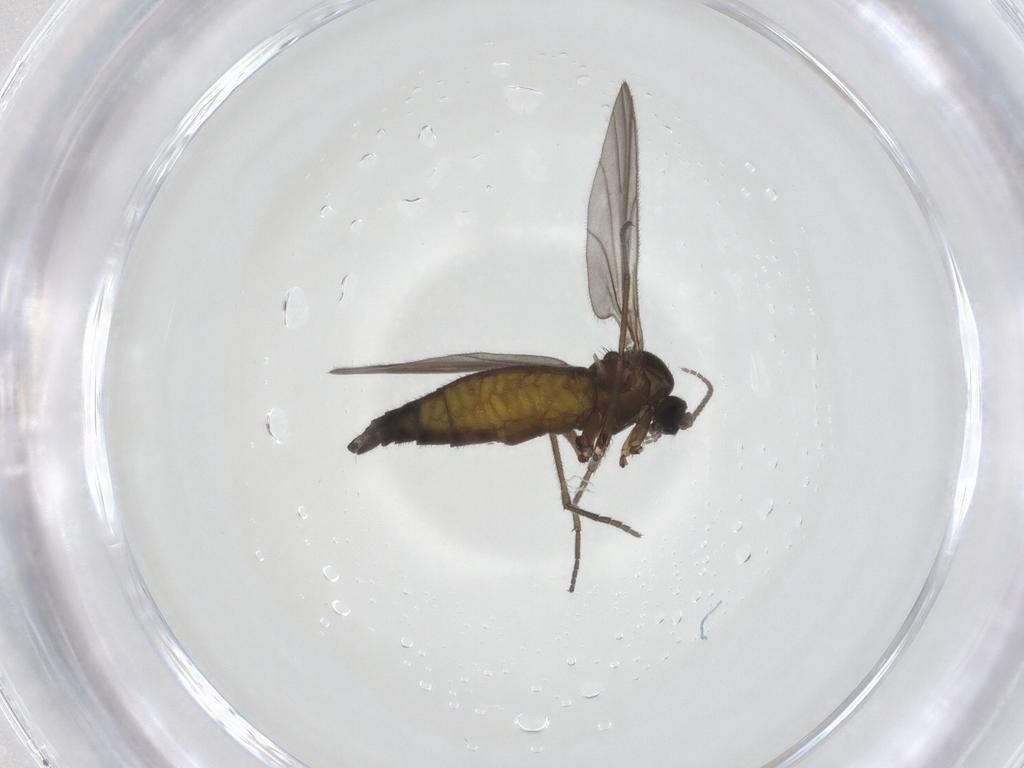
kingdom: Animalia
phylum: Arthropoda
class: Insecta
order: Diptera
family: Sciaridae
